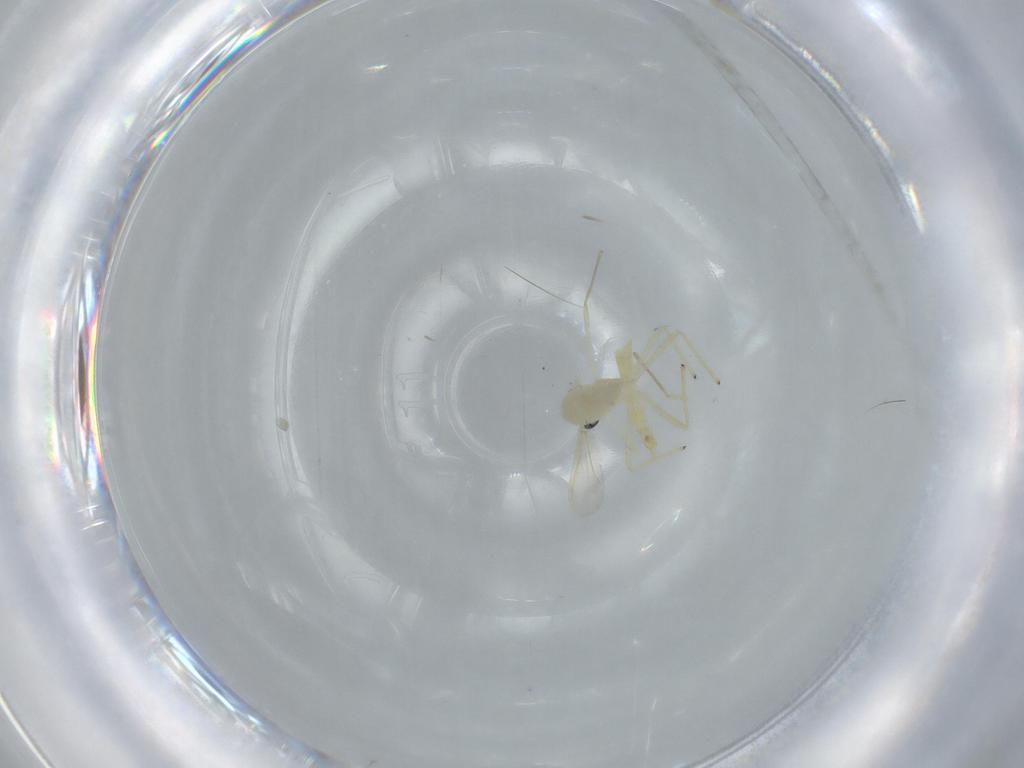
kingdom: Animalia
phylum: Arthropoda
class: Insecta
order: Diptera
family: Chironomidae
